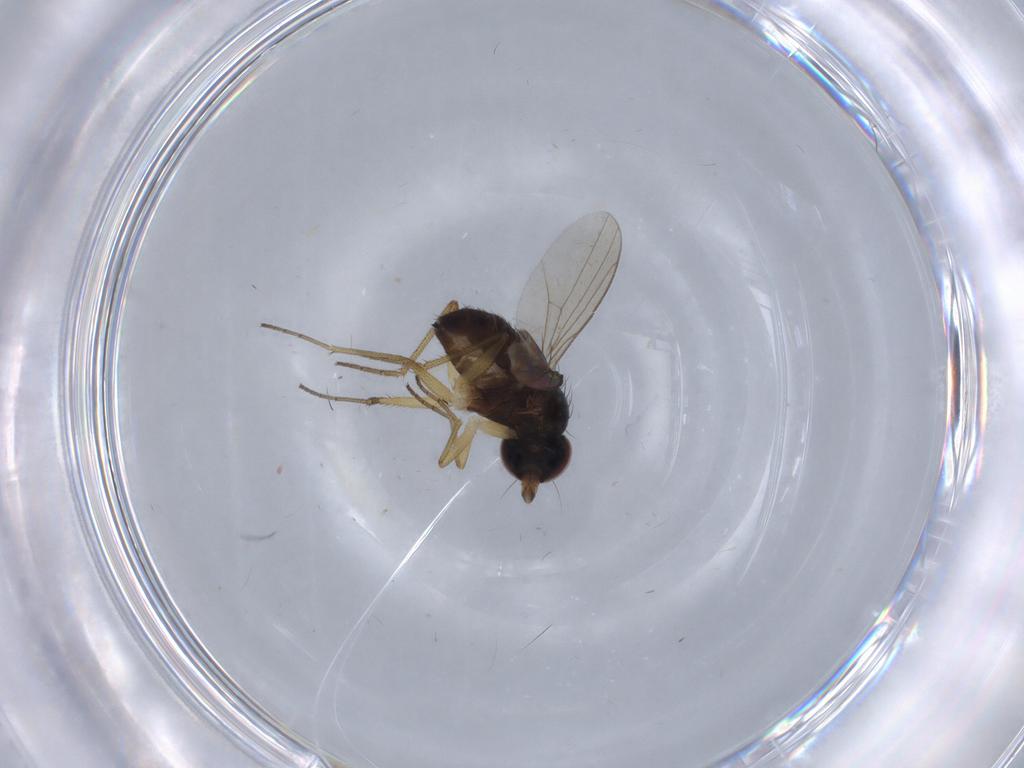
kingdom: Animalia
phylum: Arthropoda
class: Insecta
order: Diptera
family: Dolichopodidae
